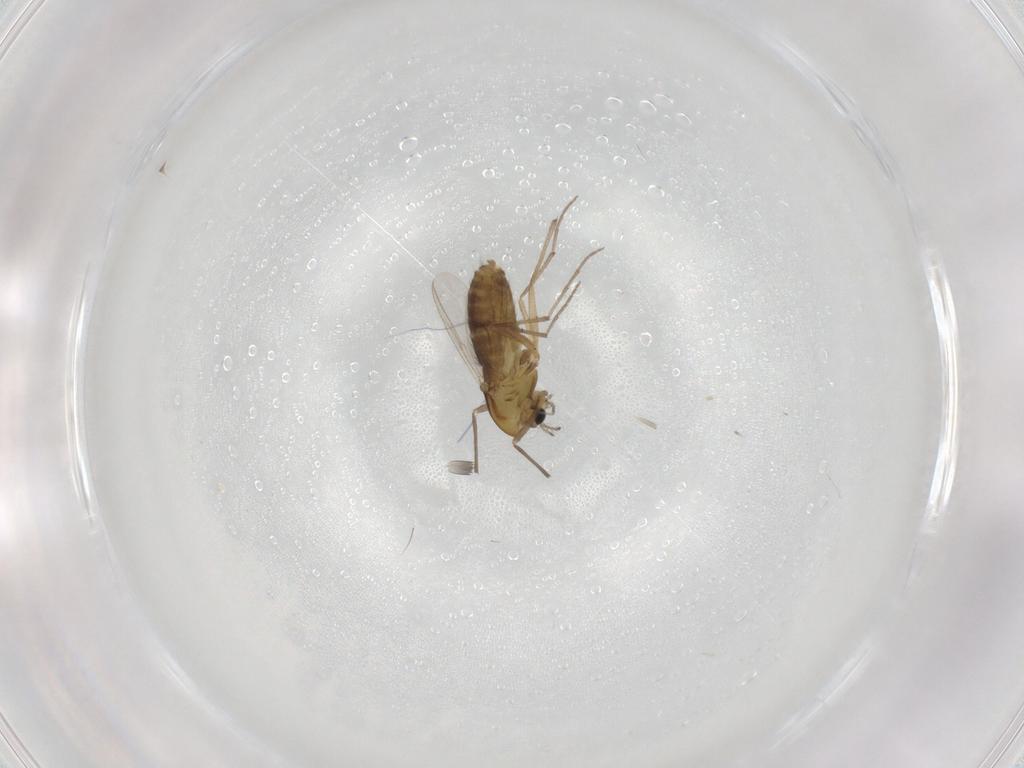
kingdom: Animalia
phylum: Arthropoda
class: Insecta
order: Diptera
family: Chironomidae
